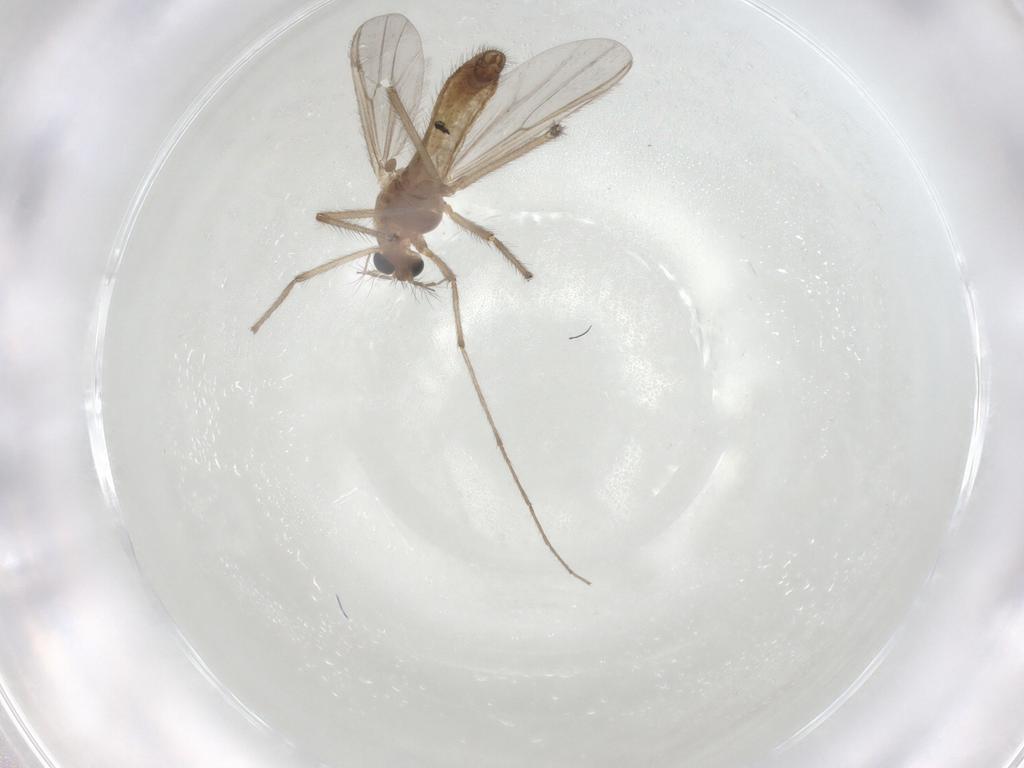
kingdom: Animalia
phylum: Arthropoda
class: Insecta
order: Diptera
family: Chironomidae
